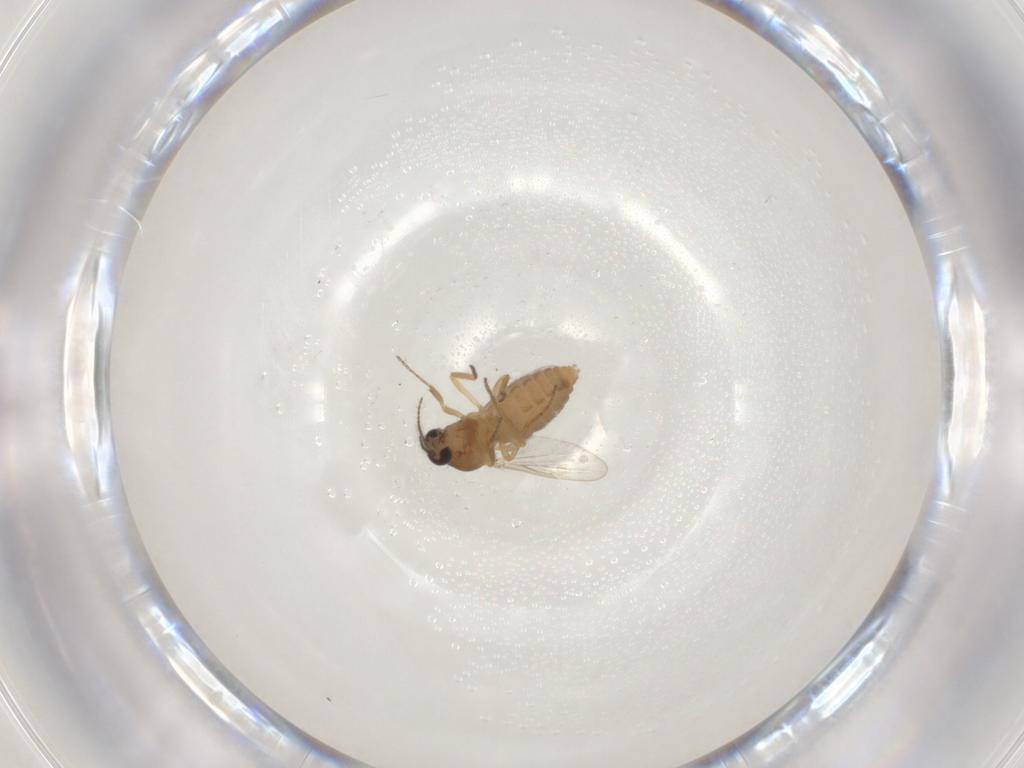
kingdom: Animalia
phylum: Arthropoda
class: Insecta
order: Diptera
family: Ceratopogonidae
